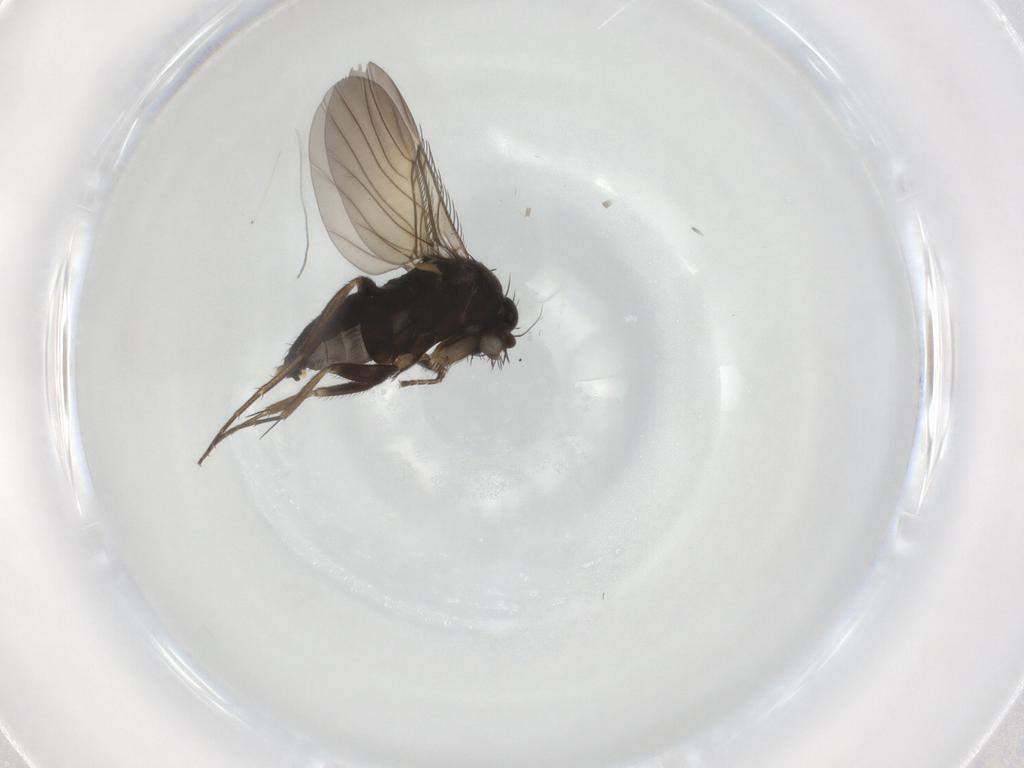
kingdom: Animalia
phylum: Arthropoda
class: Insecta
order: Diptera
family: Phoridae
